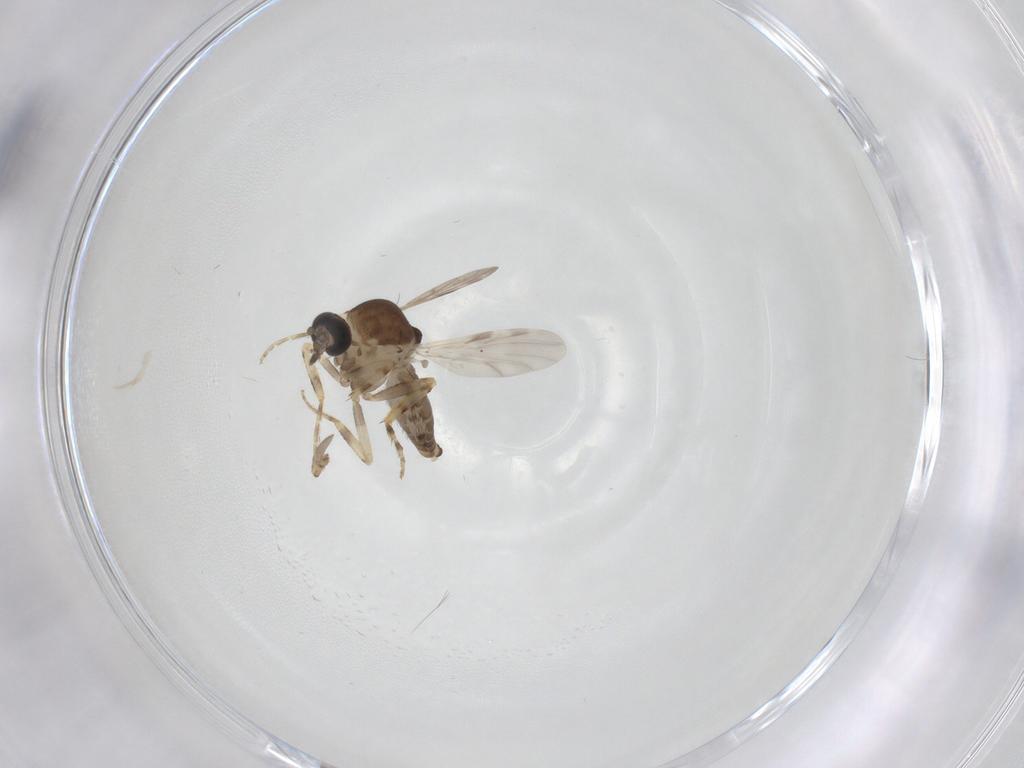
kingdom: Animalia
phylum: Arthropoda
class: Insecta
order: Diptera
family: Ceratopogonidae
